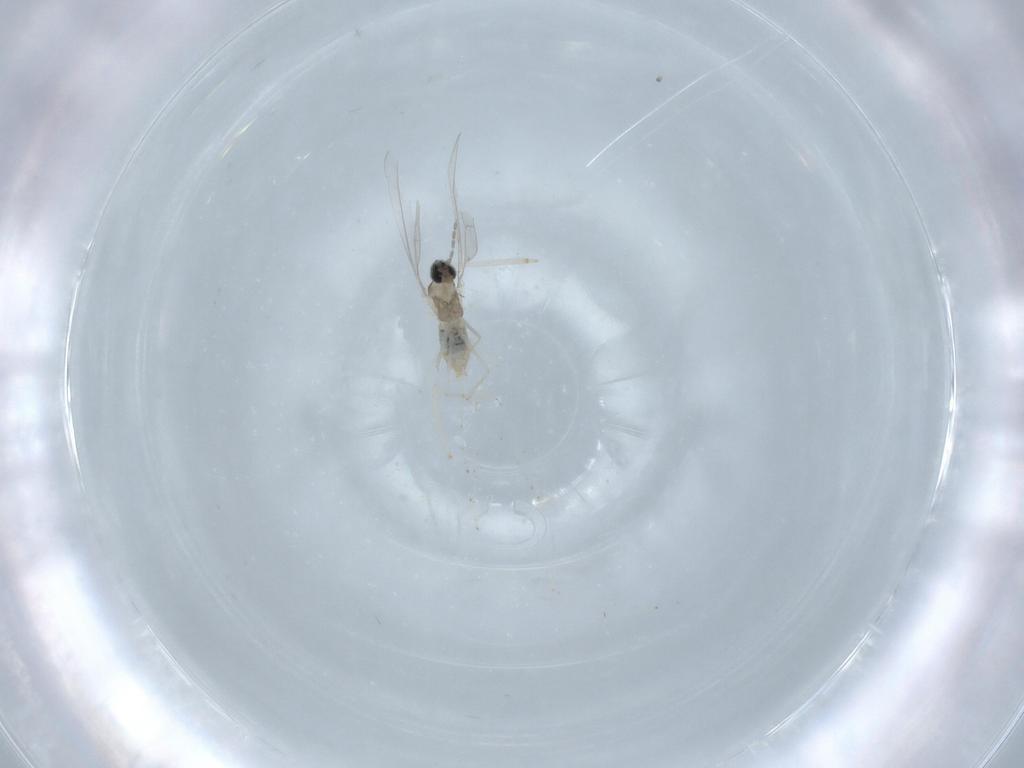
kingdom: Animalia
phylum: Arthropoda
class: Insecta
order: Diptera
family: Cecidomyiidae
